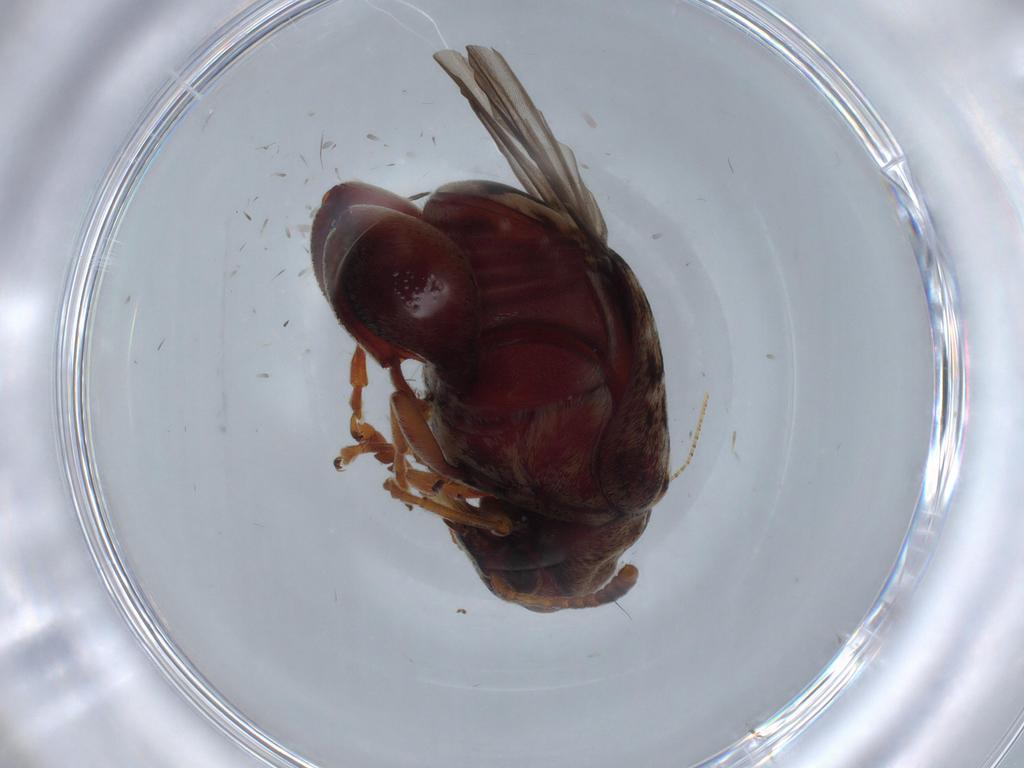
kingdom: Animalia
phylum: Arthropoda
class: Insecta
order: Coleoptera
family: Chrysomelidae
